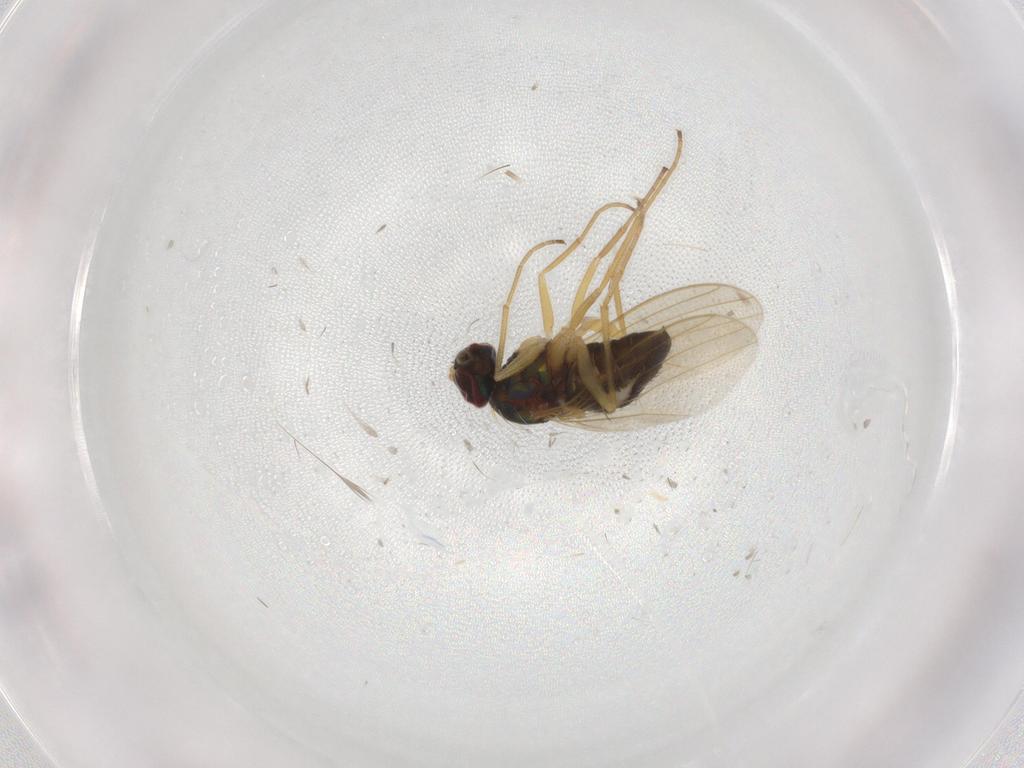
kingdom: Animalia
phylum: Arthropoda
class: Insecta
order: Diptera
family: Dolichopodidae
